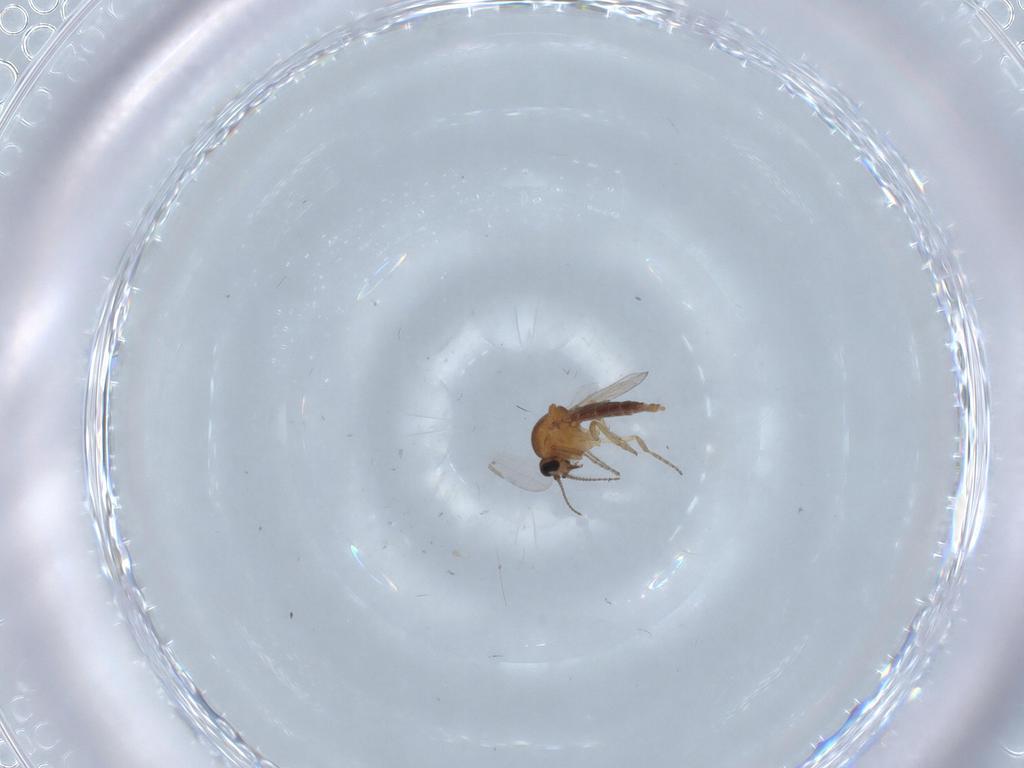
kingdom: Animalia
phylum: Arthropoda
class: Insecta
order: Diptera
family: Ceratopogonidae
